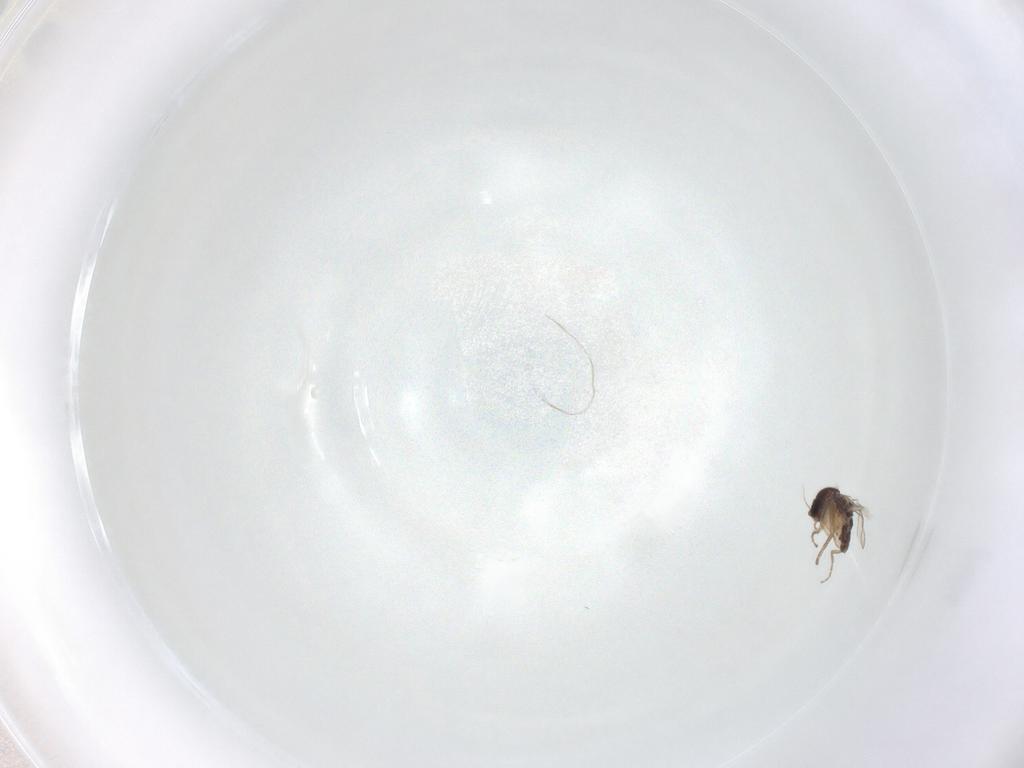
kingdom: Animalia
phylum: Arthropoda
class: Insecta
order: Diptera
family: Phoridae
